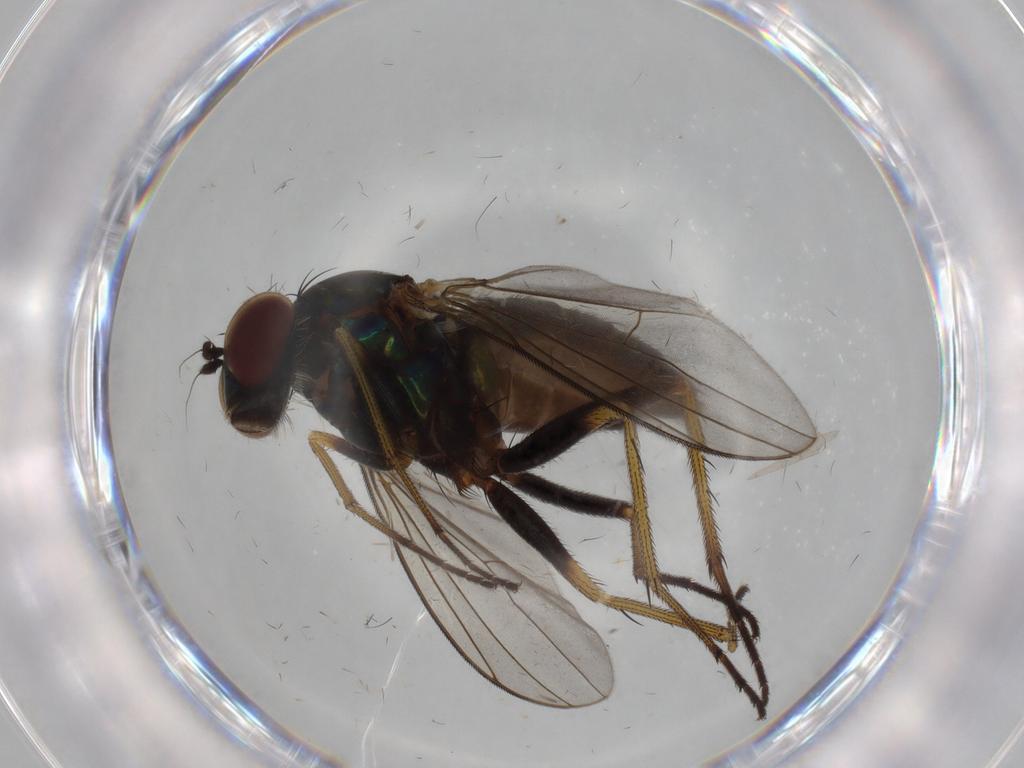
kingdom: Animalia
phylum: Arthropoda
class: Insecta
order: Diptera
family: Dolichopodidae
